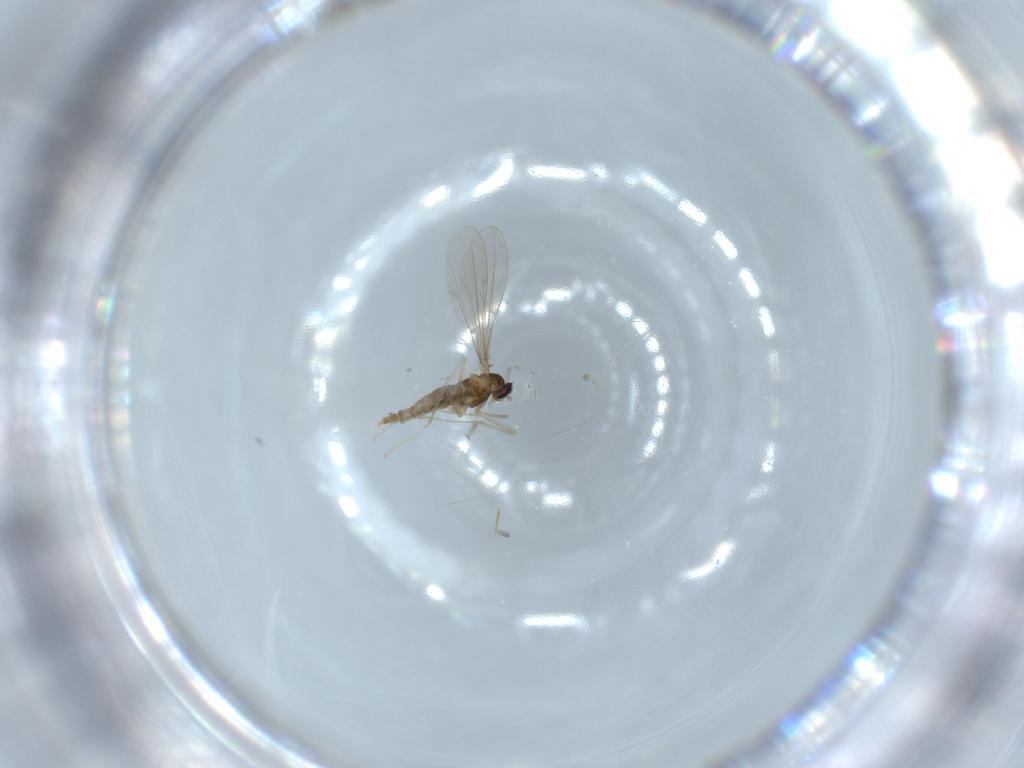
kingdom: Animalia
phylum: Arthropoda
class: Insecta
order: Diptera
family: Cecidomyiidae
